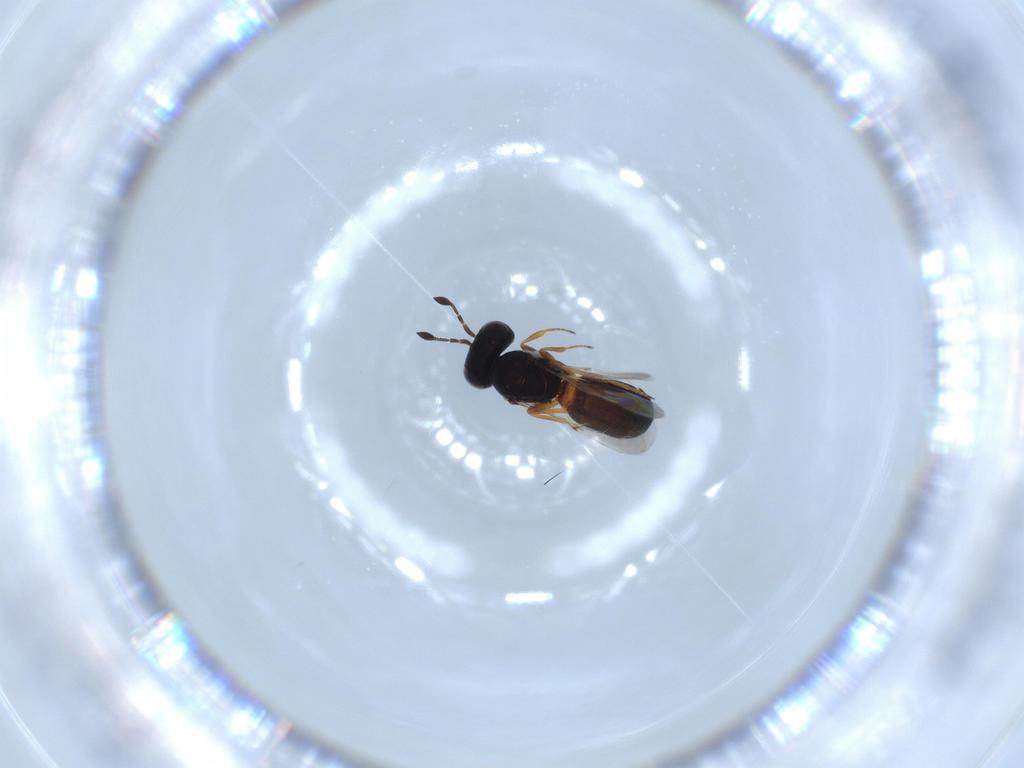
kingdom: Animalia
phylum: Arthropoda
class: Insecta
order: Hymenoptera
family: Scelionidae
